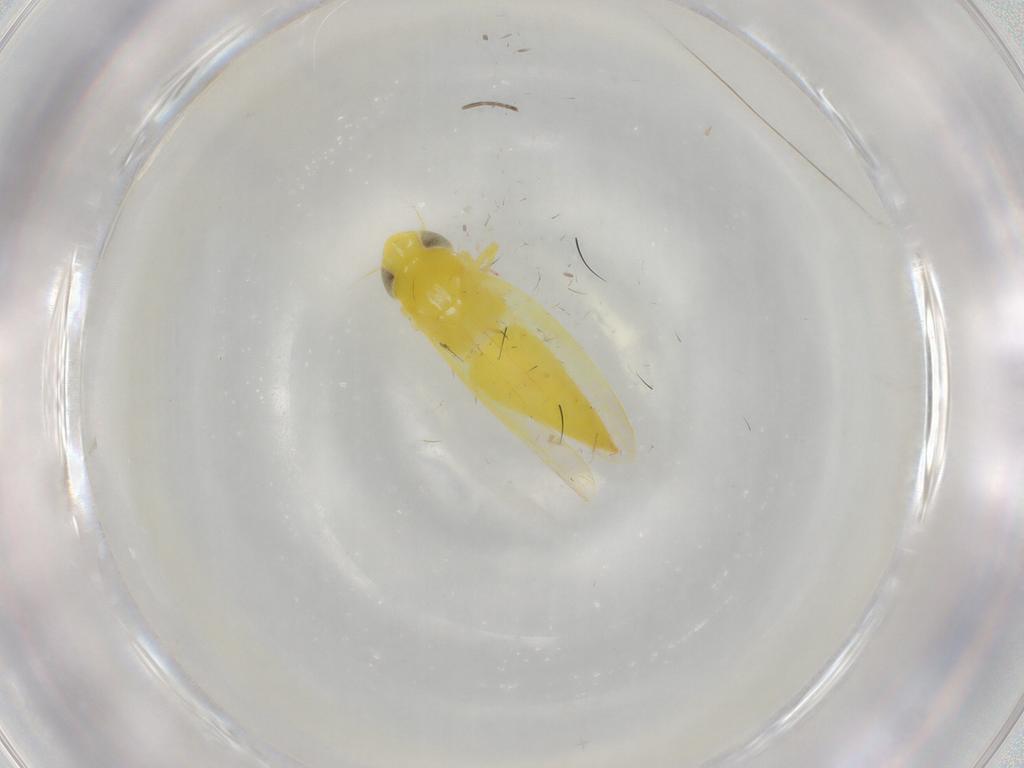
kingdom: Animalia
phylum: Arthropoda
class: Insecta
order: Hemiptera
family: Cicadellidae
